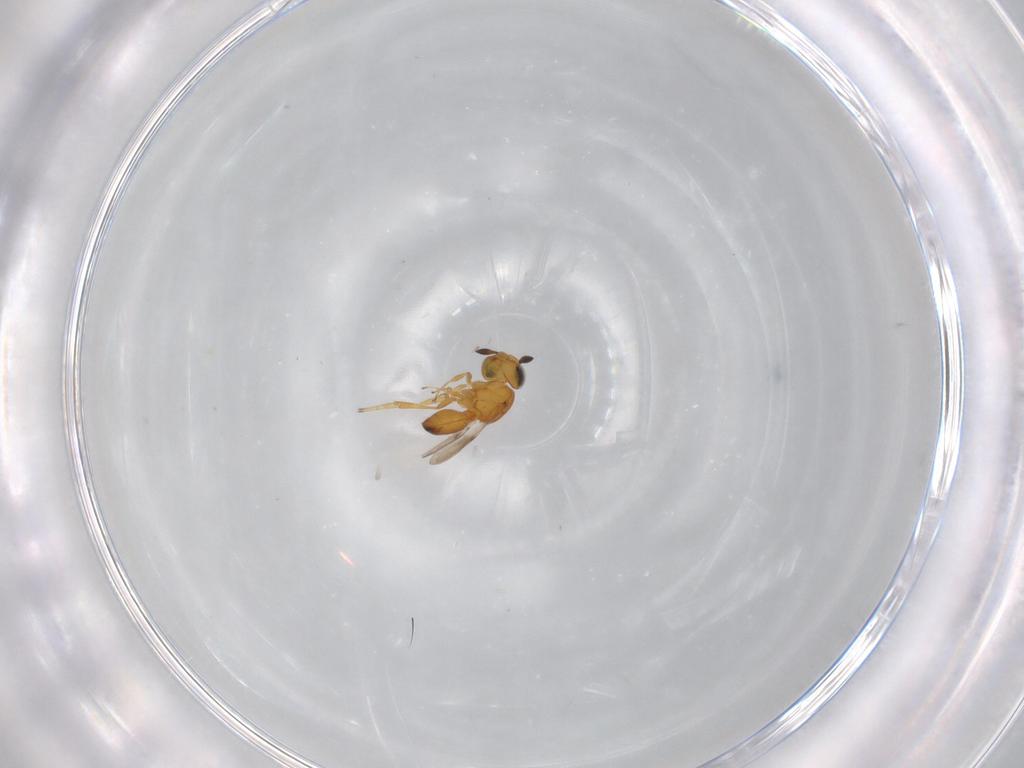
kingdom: Animalia
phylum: Arthropoda
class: Insecta
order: Hymenoptera
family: Scelionidae
